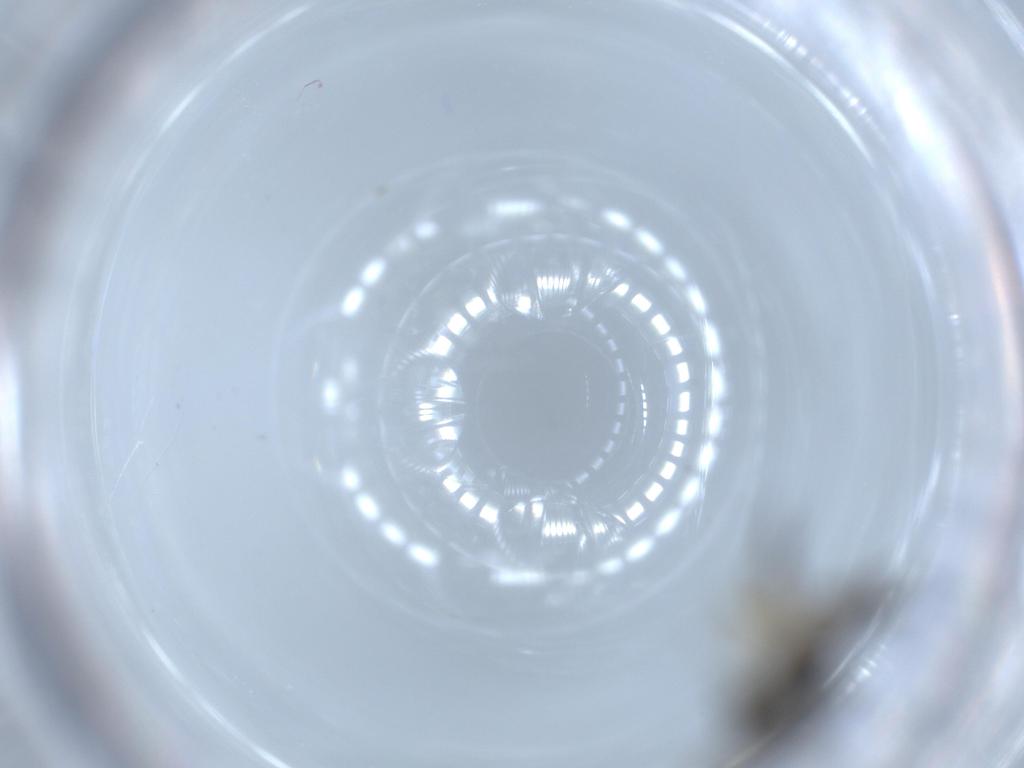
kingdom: Animalia
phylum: Arthropoda
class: Insecta
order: Diptera
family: Hybotidae
